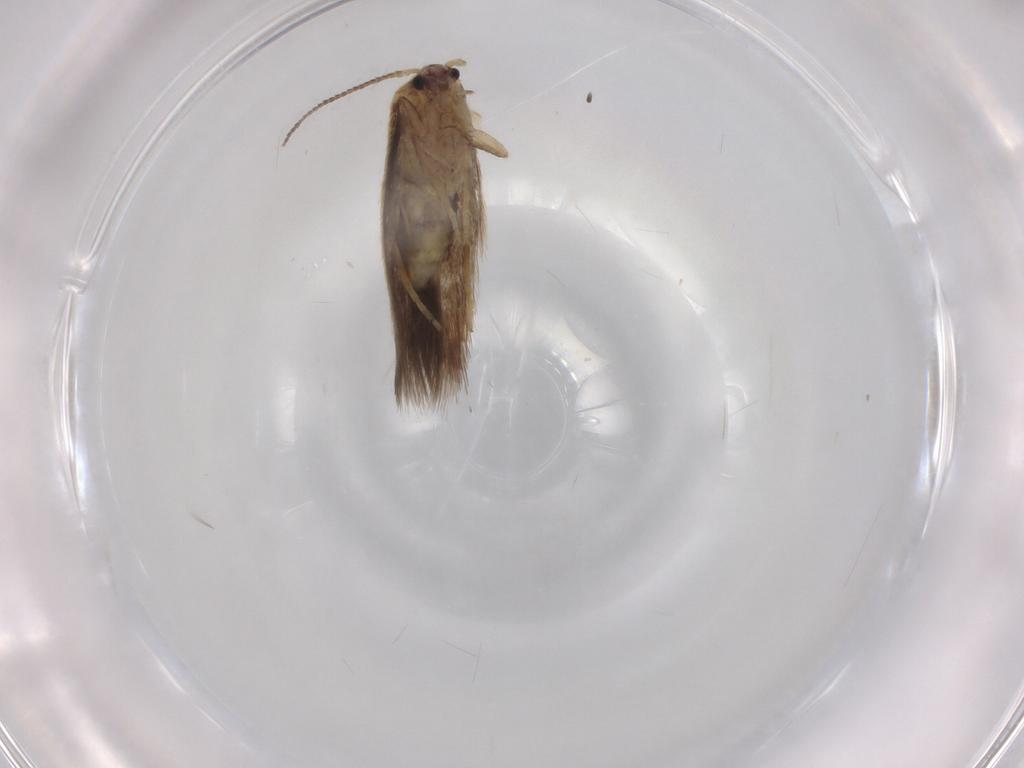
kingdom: Animalia
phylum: Arthropoda
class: Insecta
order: Lepidoptera
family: Nepticulidae
